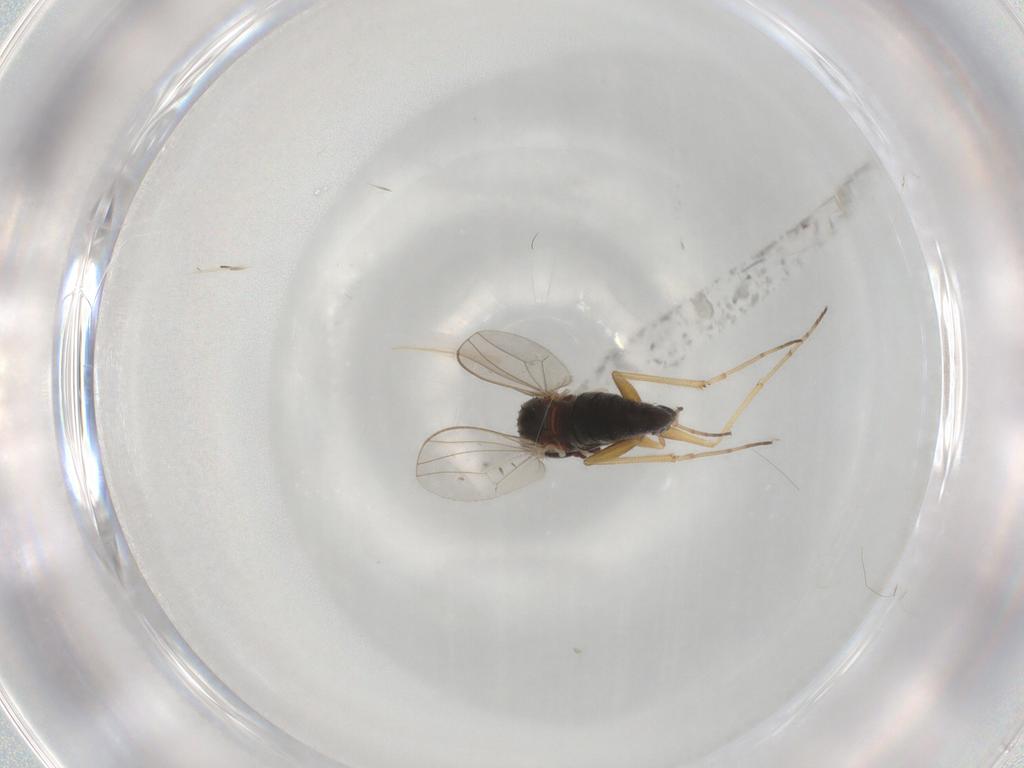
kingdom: Animalia
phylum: Arthropoda
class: Insecta
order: Diptera
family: Dolichopodidae
